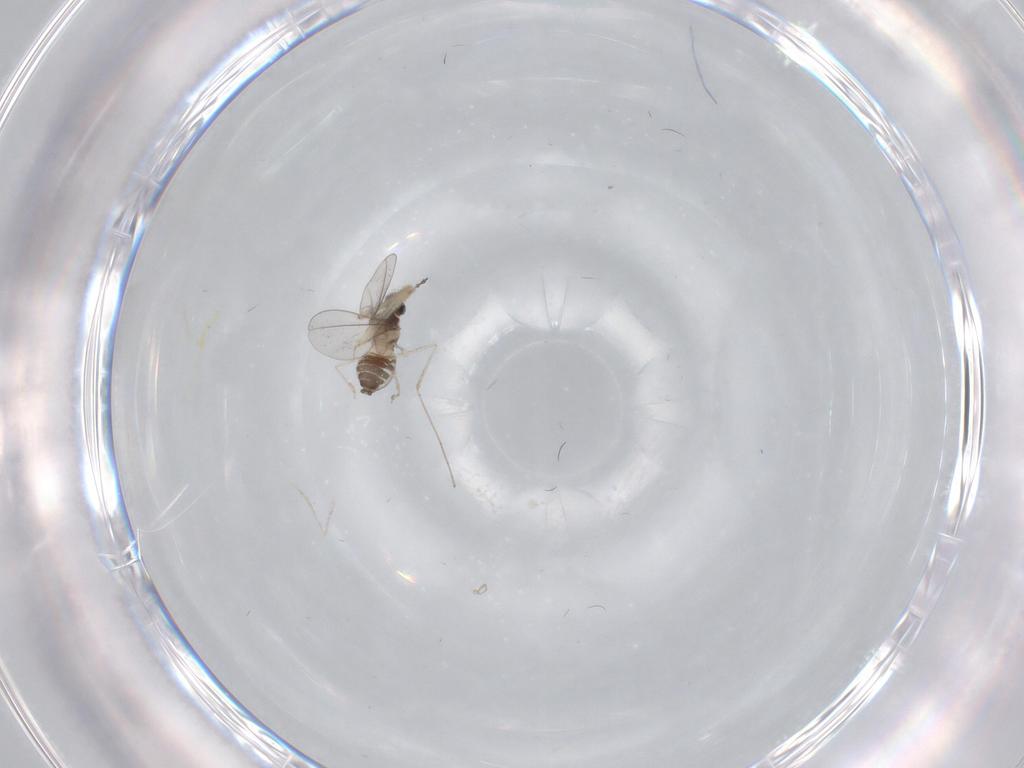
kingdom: Animalia
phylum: Arthropoda
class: Insecta
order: Diptera
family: Cecidomyiidae
